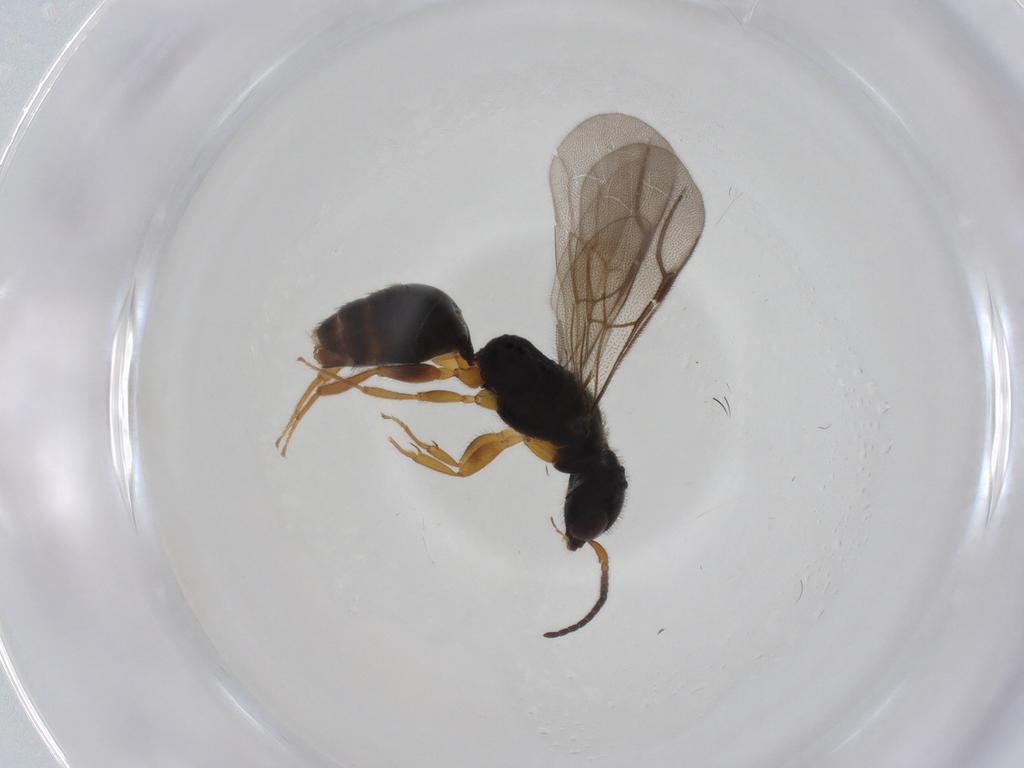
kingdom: Animalia
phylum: Arthropoda
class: Insecta
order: Hymenoptera
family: Bethylidae
